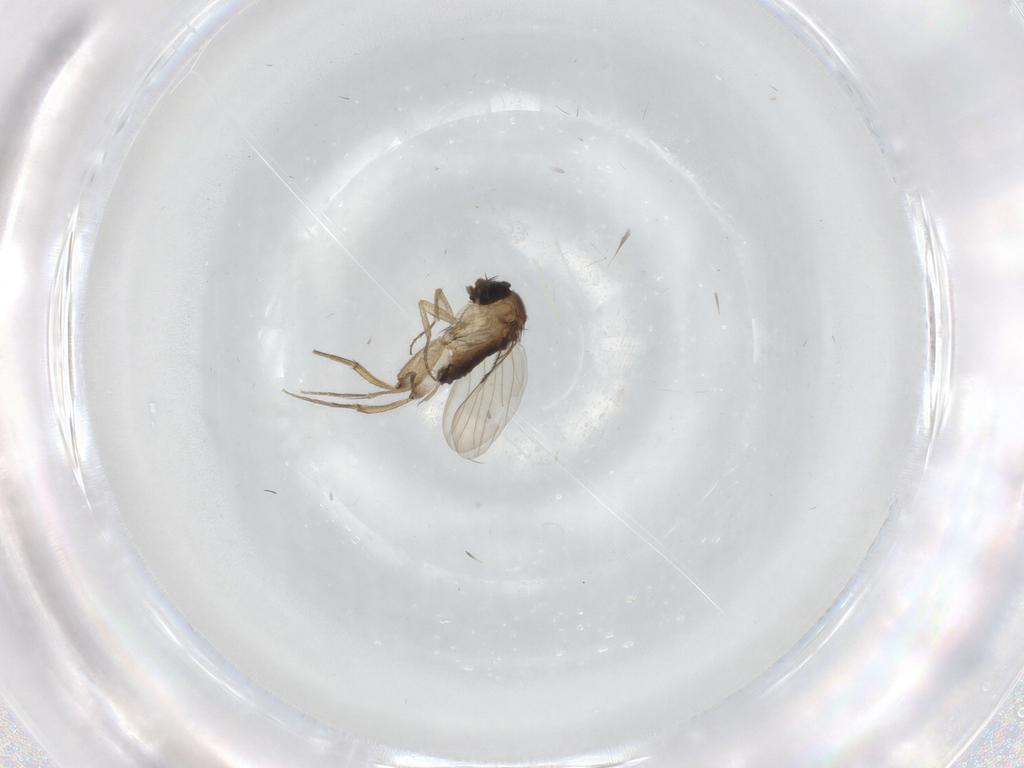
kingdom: Animalia
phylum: Arthropoda
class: Insecta
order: Diptera
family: Phoridae
